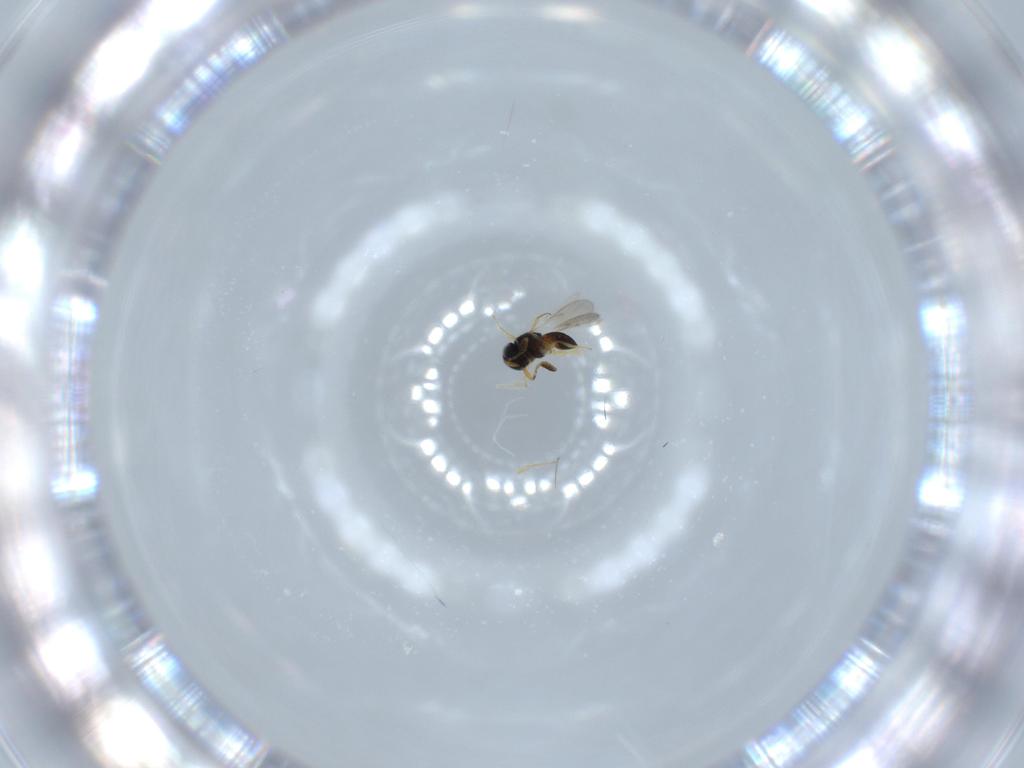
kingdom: Animalia
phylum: Arthropoda
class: Insecta
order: Hymenoptera
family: Scelionidae
